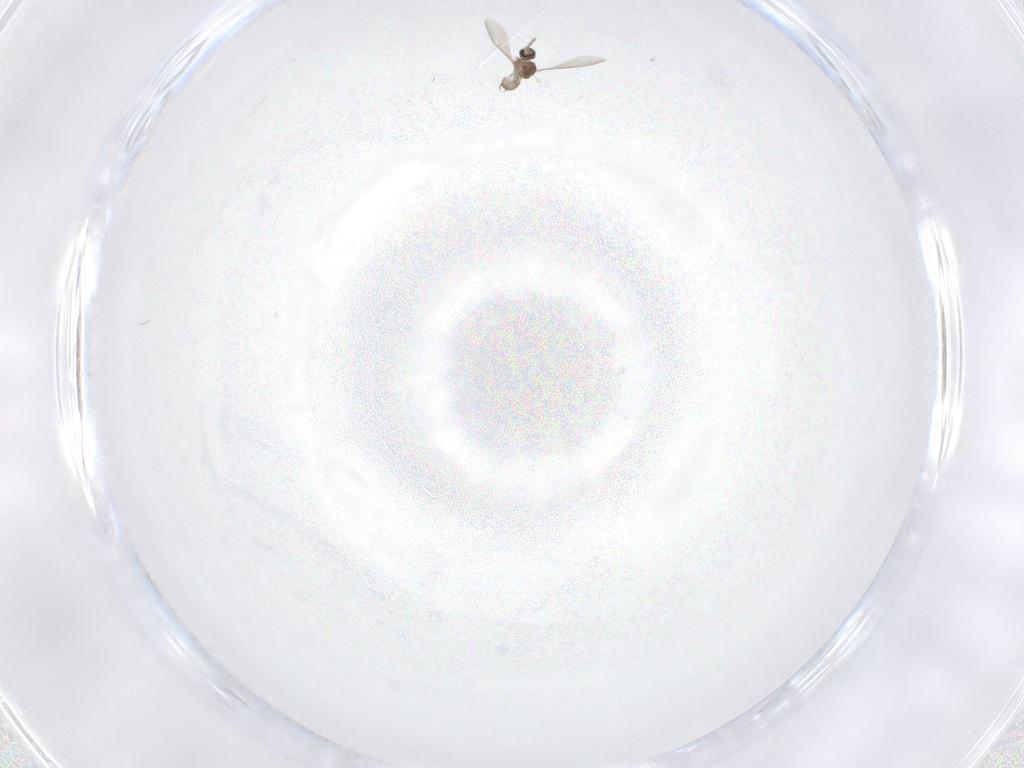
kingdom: Animalia
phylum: Arthropoda
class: Insecta
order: Diptera
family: Cecidomyiidae
